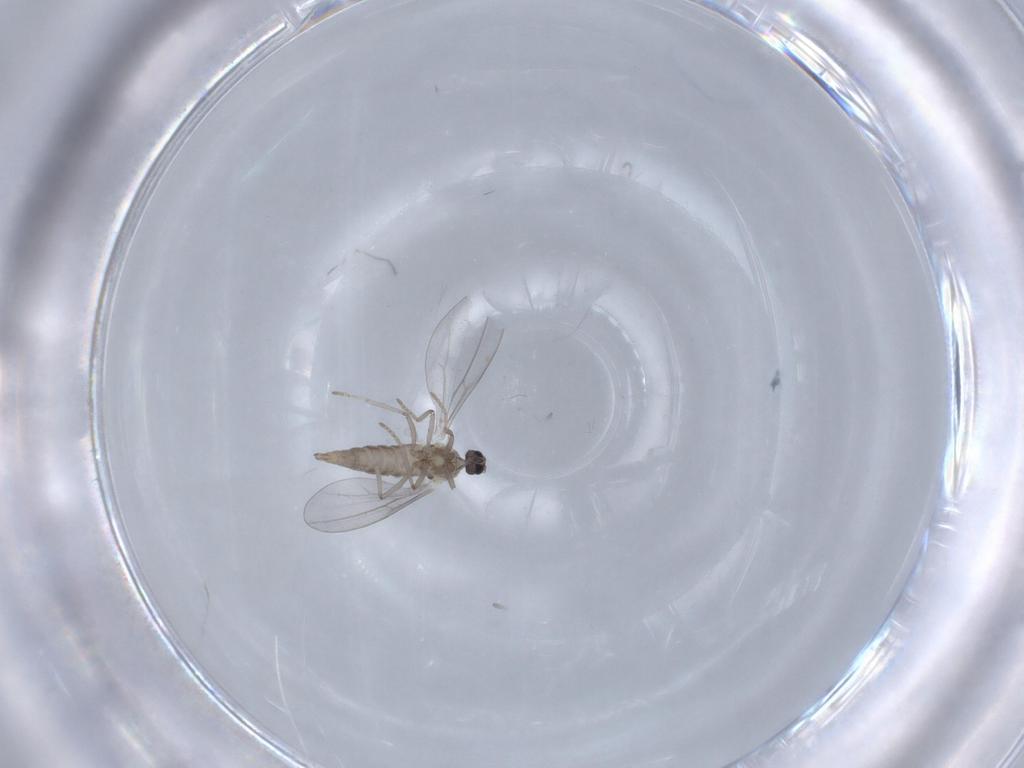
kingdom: Animalia
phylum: Arthropoda
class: Insecta
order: Diptera
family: Cecidomyiidae
